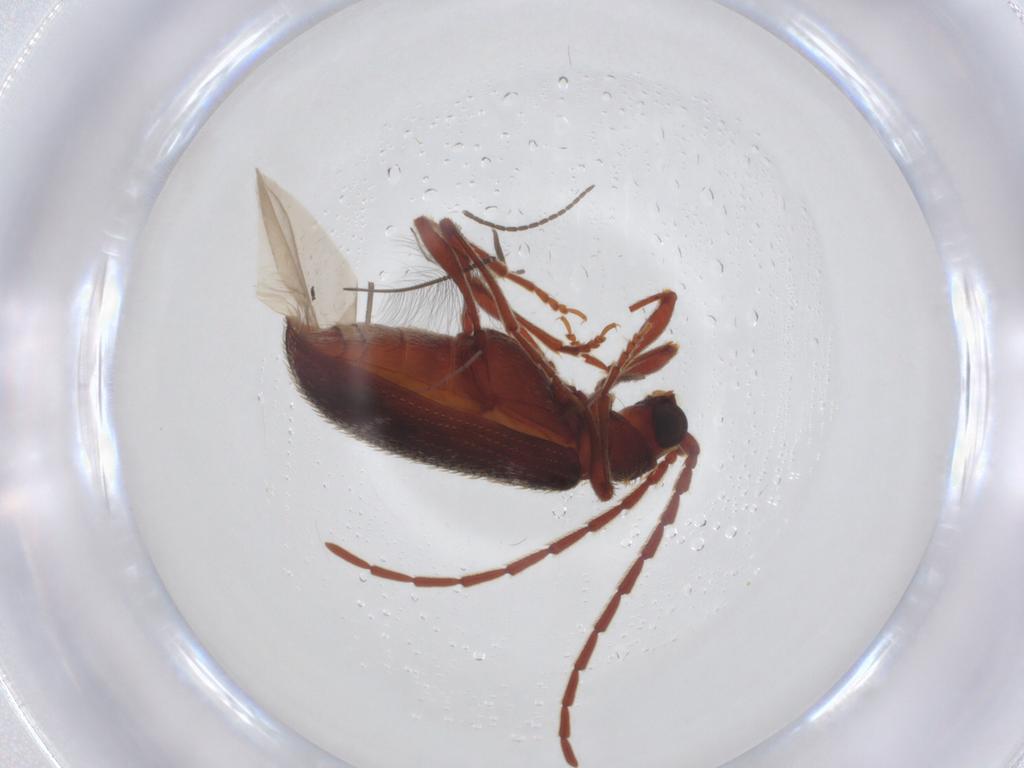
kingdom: Animalia
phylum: Arthropoda
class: Insecta
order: Coleoptera
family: Ptinidae
